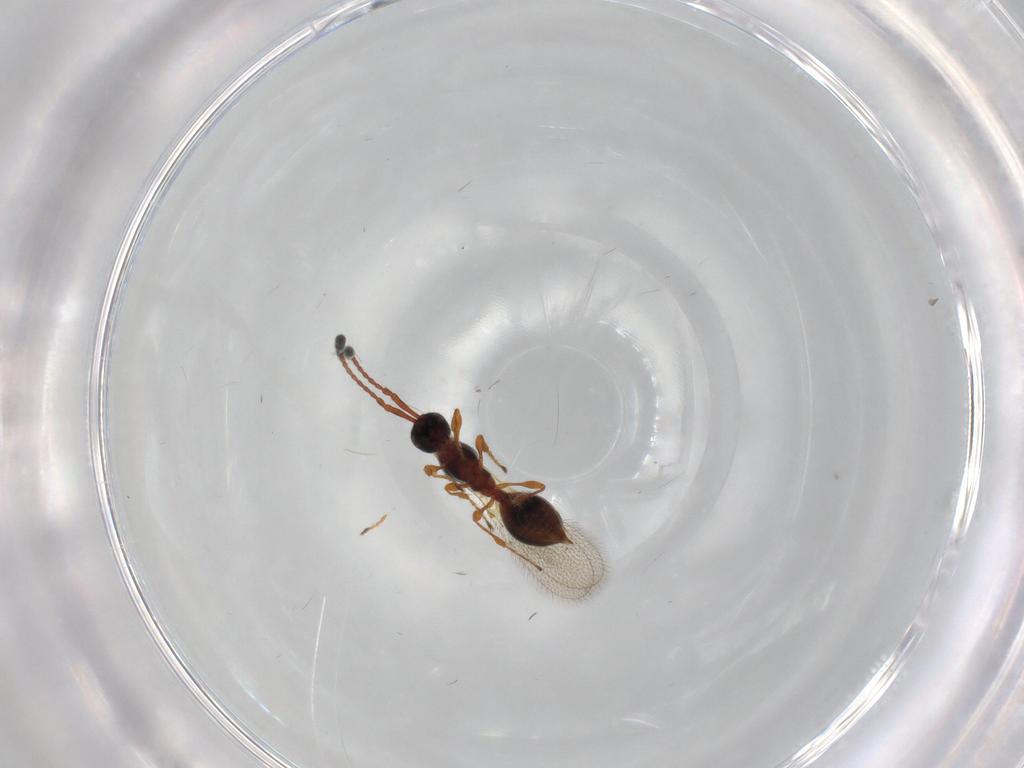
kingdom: Animalia
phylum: Arthropoda
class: Insecta
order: Hymenoptera
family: Diapriidae
